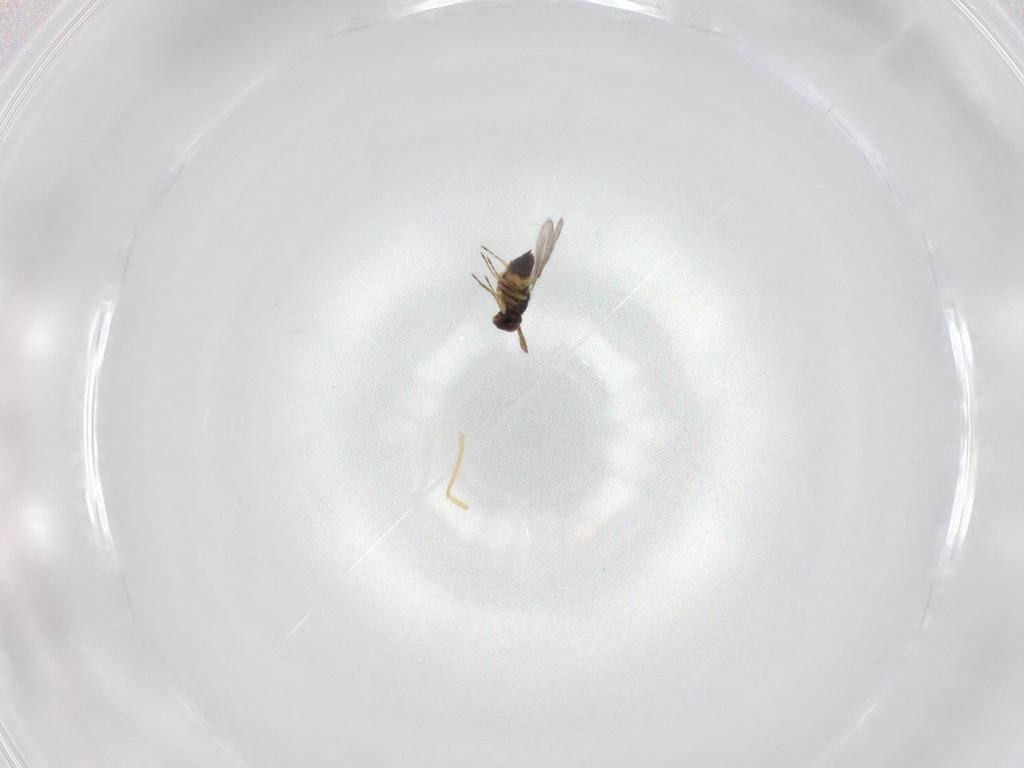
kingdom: Animalia
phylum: Arthropoda
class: Insecta
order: Hymenoptera
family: Eulophidae
